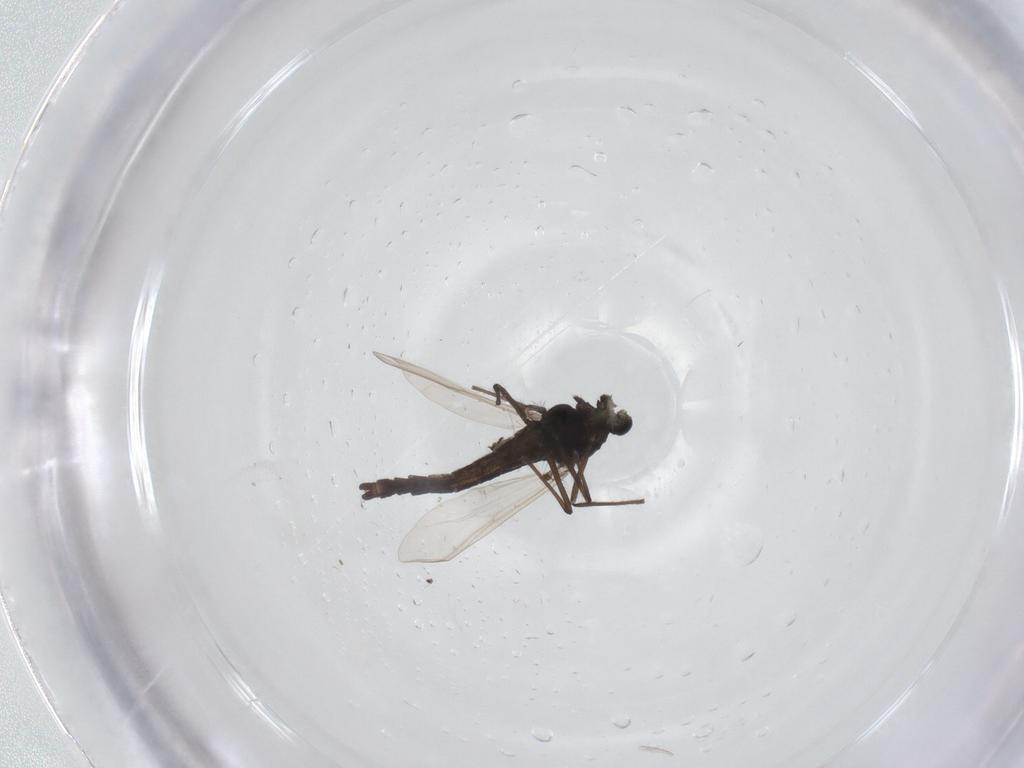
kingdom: Animalia
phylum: Arthropoda
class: Insecta
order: Diptera
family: Chironomidae
